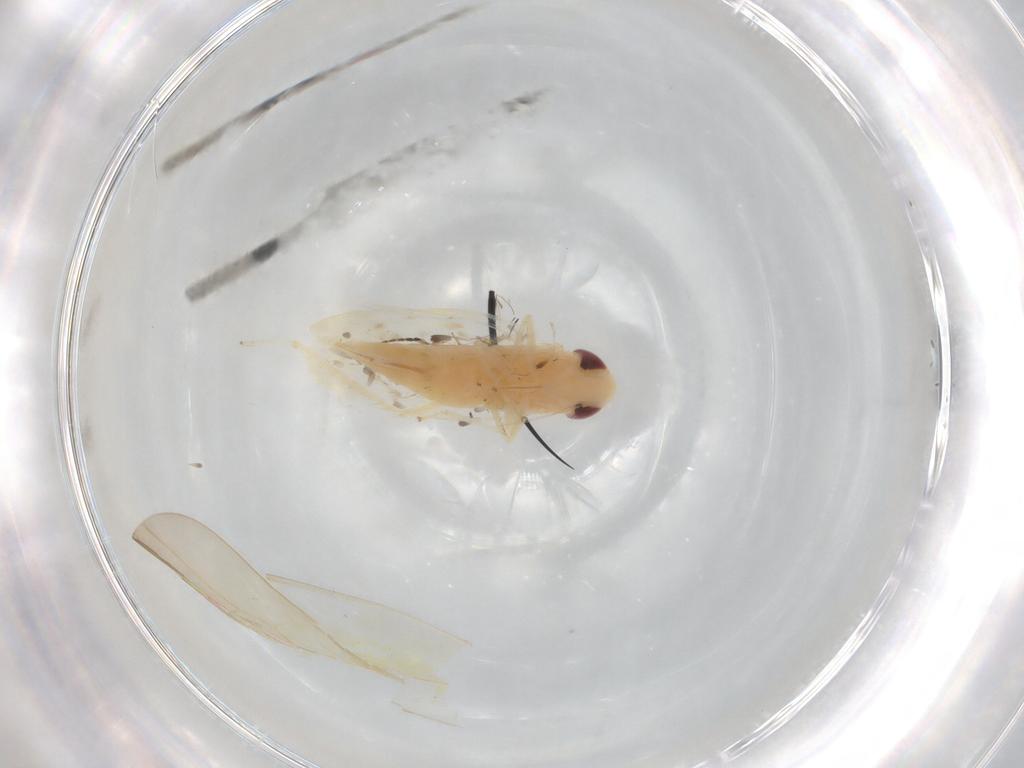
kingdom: Animalia
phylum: Arthropoda
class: Insecta
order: Hemiptera
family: Cicadellidae
